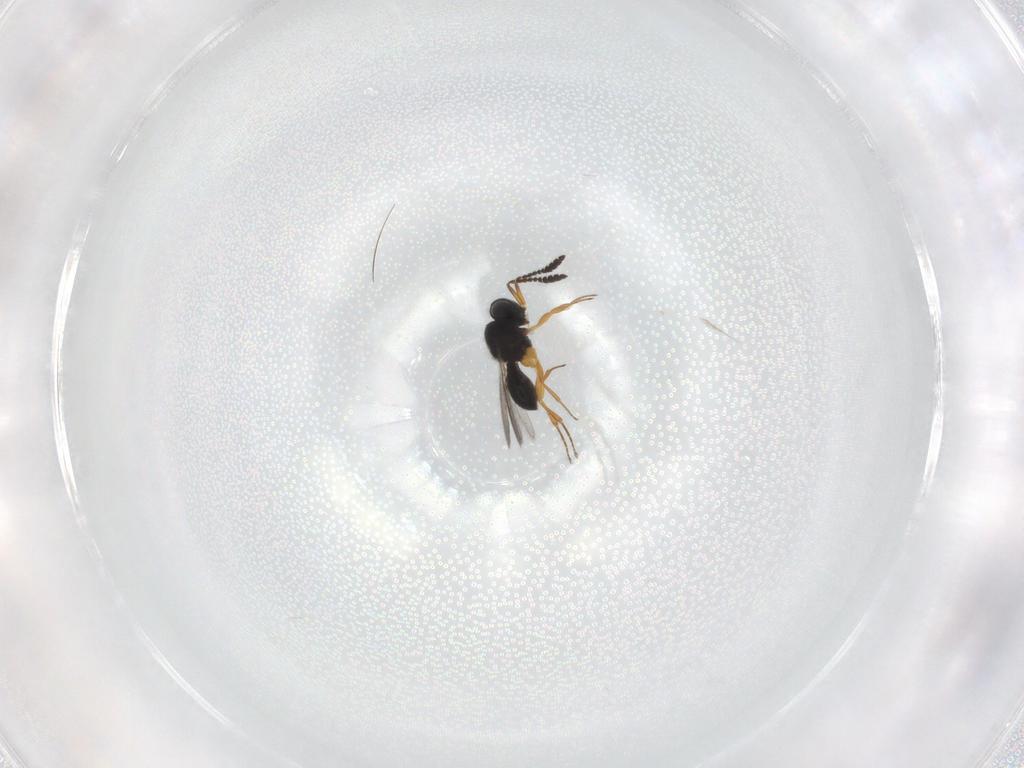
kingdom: Animalia
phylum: Arthropoda
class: Insecta
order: Hymenoptera
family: Scelionidae
